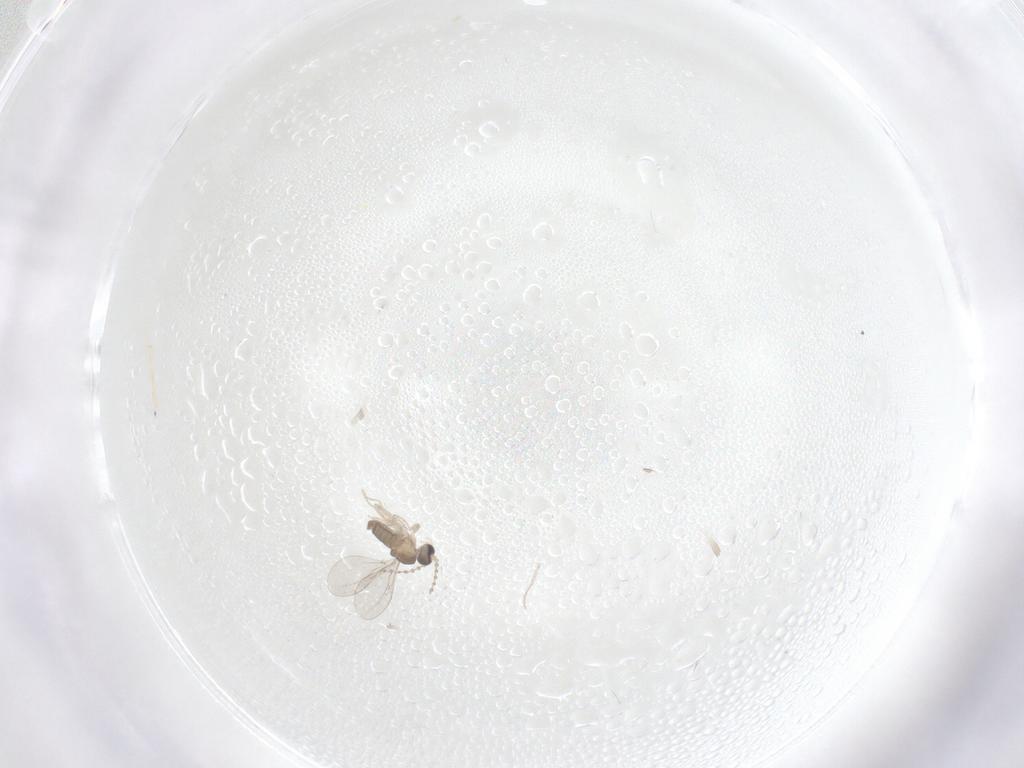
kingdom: Animalia
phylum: Arthropoda
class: Insecta
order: Diptera
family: Cecidomyiidae
